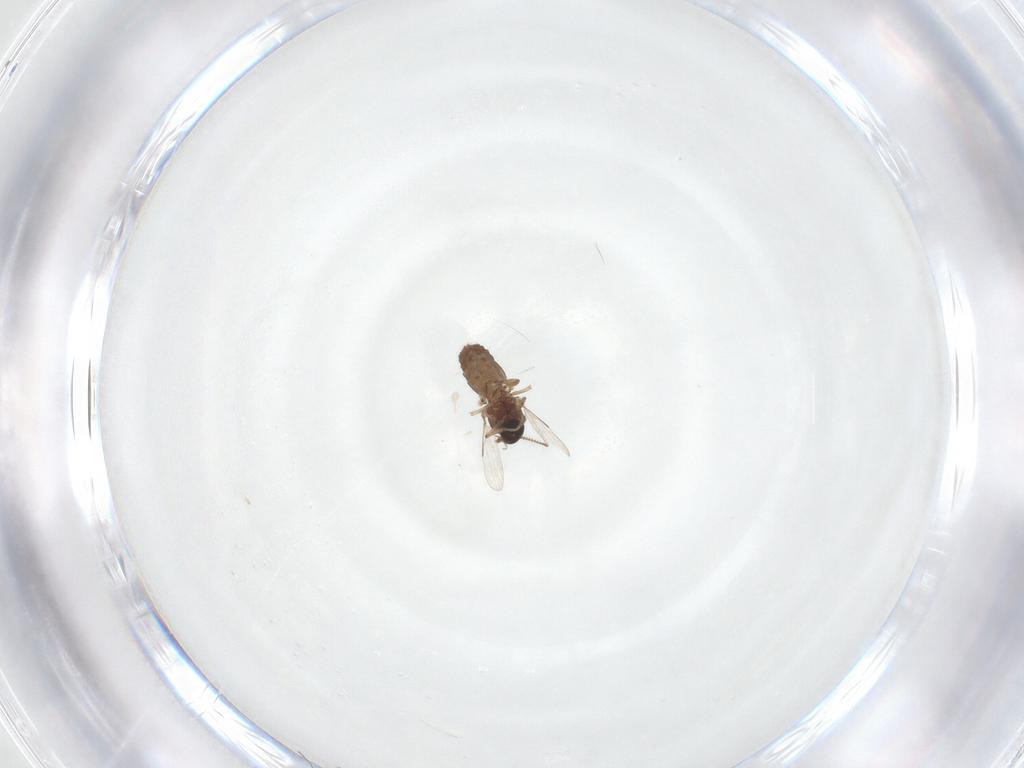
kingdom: Animalia
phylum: Arthropoda
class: Insecta
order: Diptera
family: Ceratopogonidae
